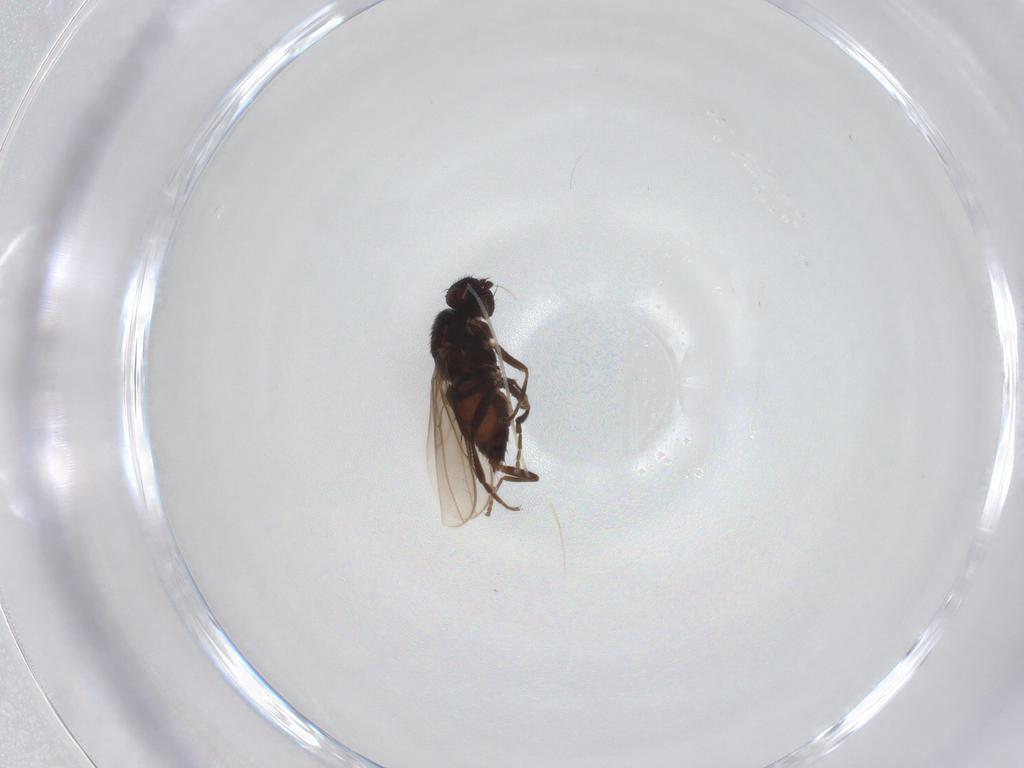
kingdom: Animalia
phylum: Arthropoda
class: Insecta
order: Diptera
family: Sphaeroceridae
